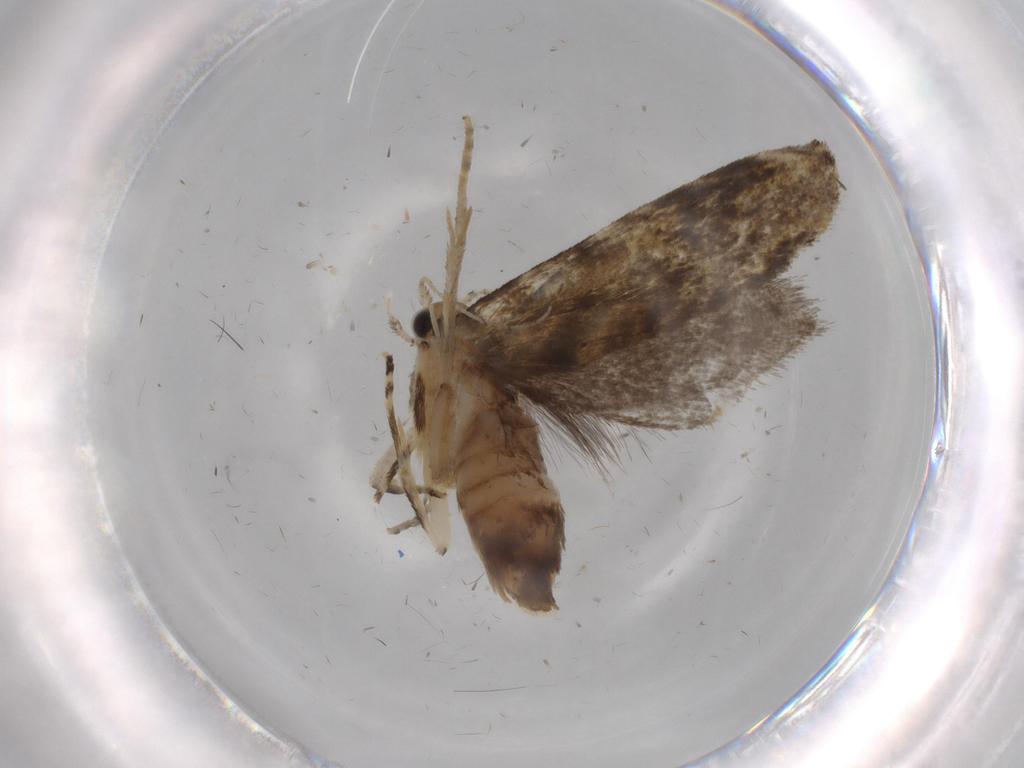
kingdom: Animalia
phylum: Arthropoda
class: Insecta
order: Lepidoptera
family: Tineidae
